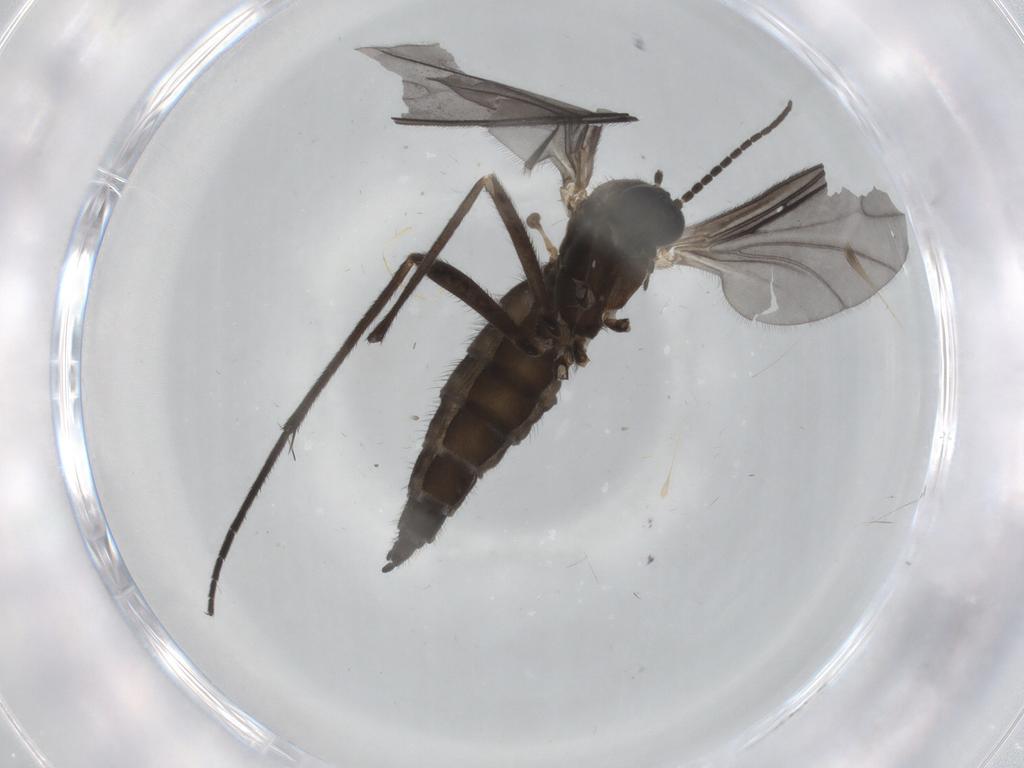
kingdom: Animalia
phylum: Arthropoda
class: Insecta
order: Diptera
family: Sciaridae
